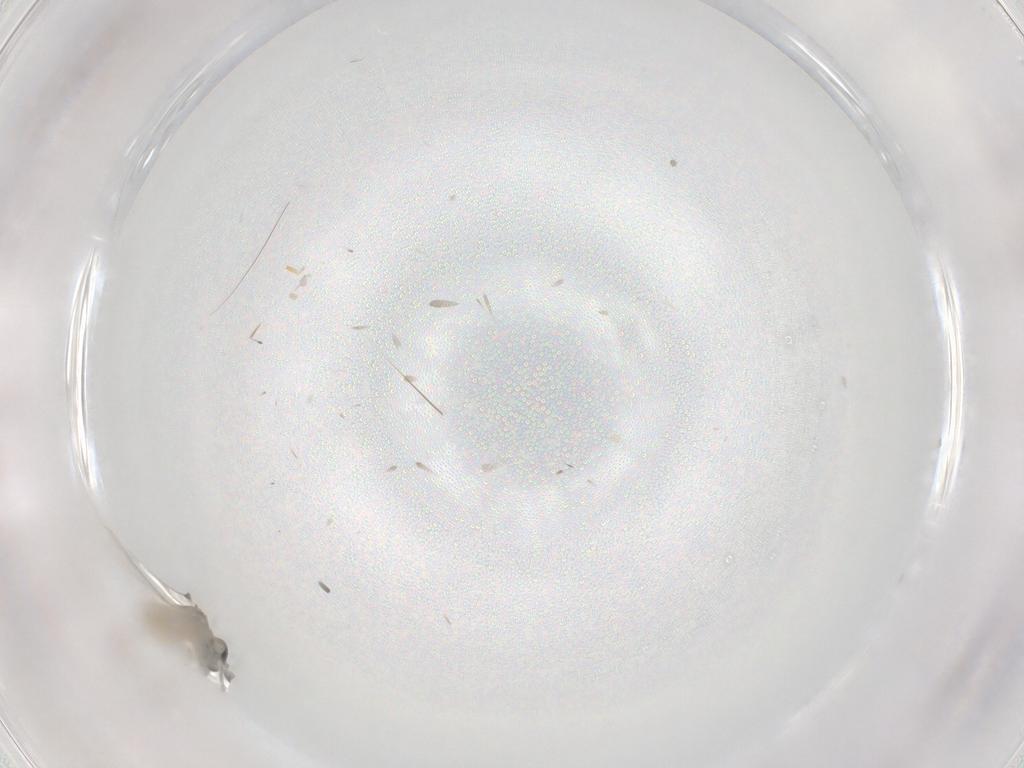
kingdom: Animalia
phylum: Arthropoda
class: Insecta
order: Diptera
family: Cecidomyiidae
